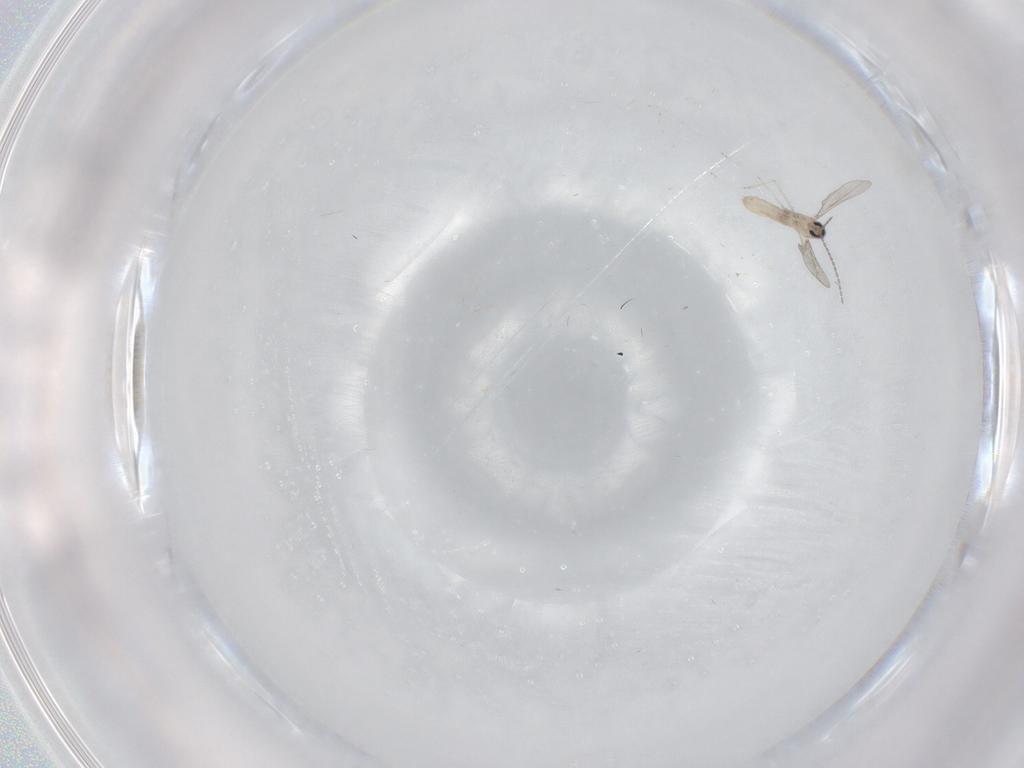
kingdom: Animalia
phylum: Arthropoda
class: Insecta
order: Diptera
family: Cecidomyiidae
